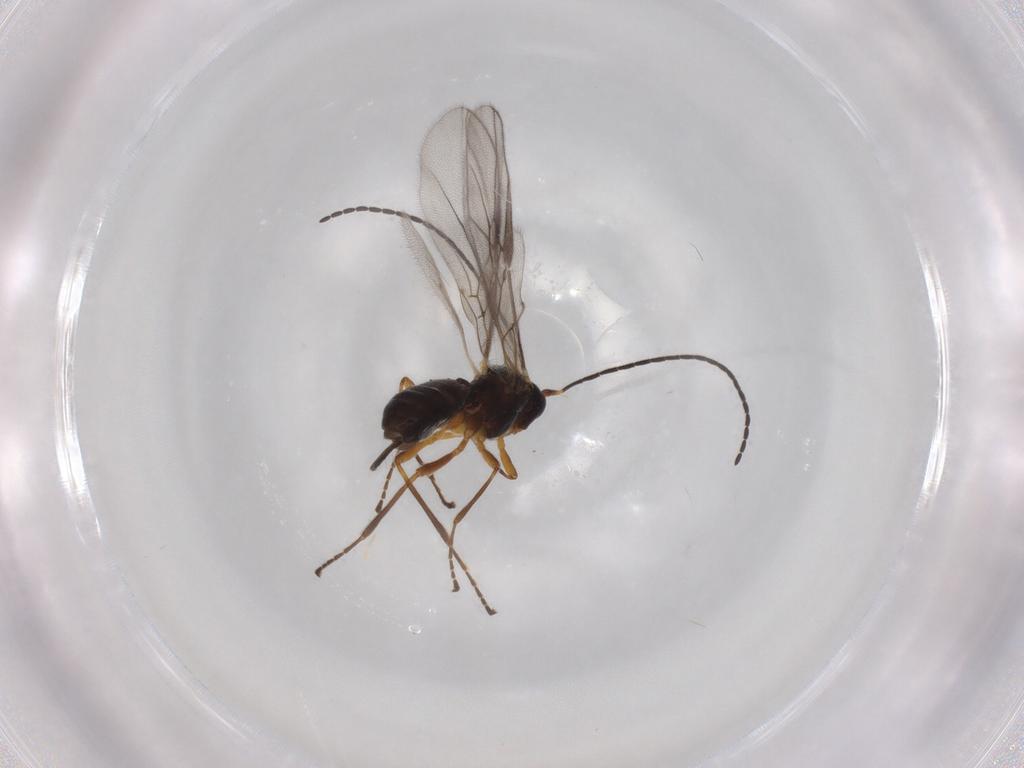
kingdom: Animalia
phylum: Arthropoda
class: Insecta
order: Hymenoptera
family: Braconidae
